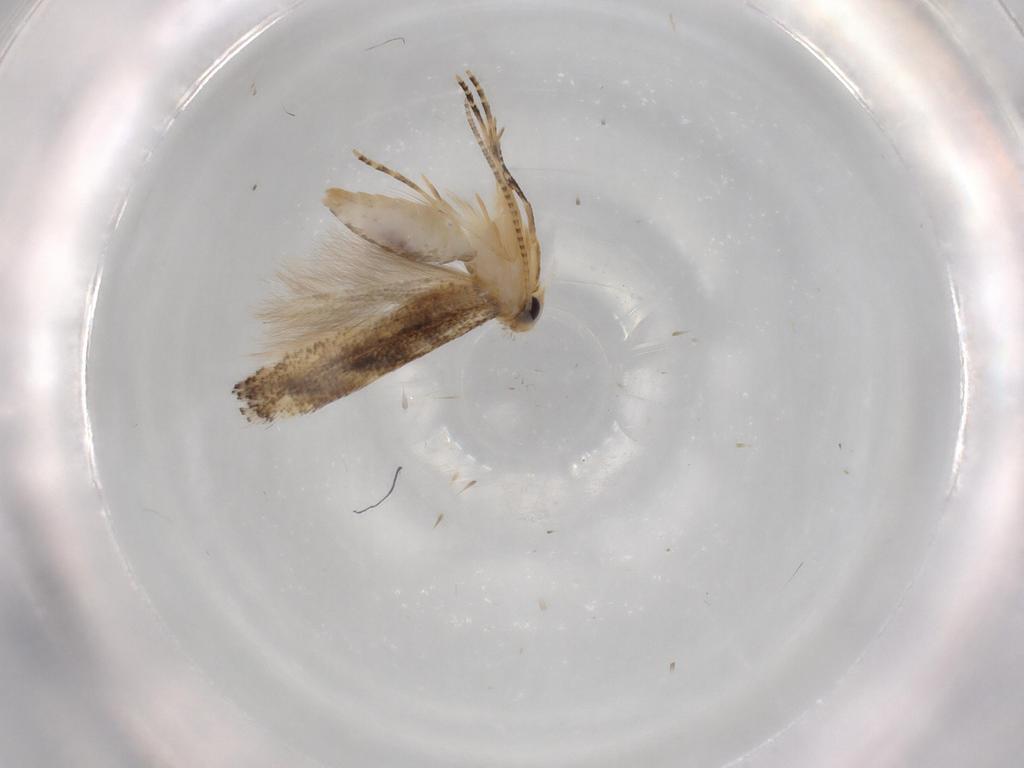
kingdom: Animalia
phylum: Arthropoda
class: Insecta
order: Lepidoptera
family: Bucculatricidae
